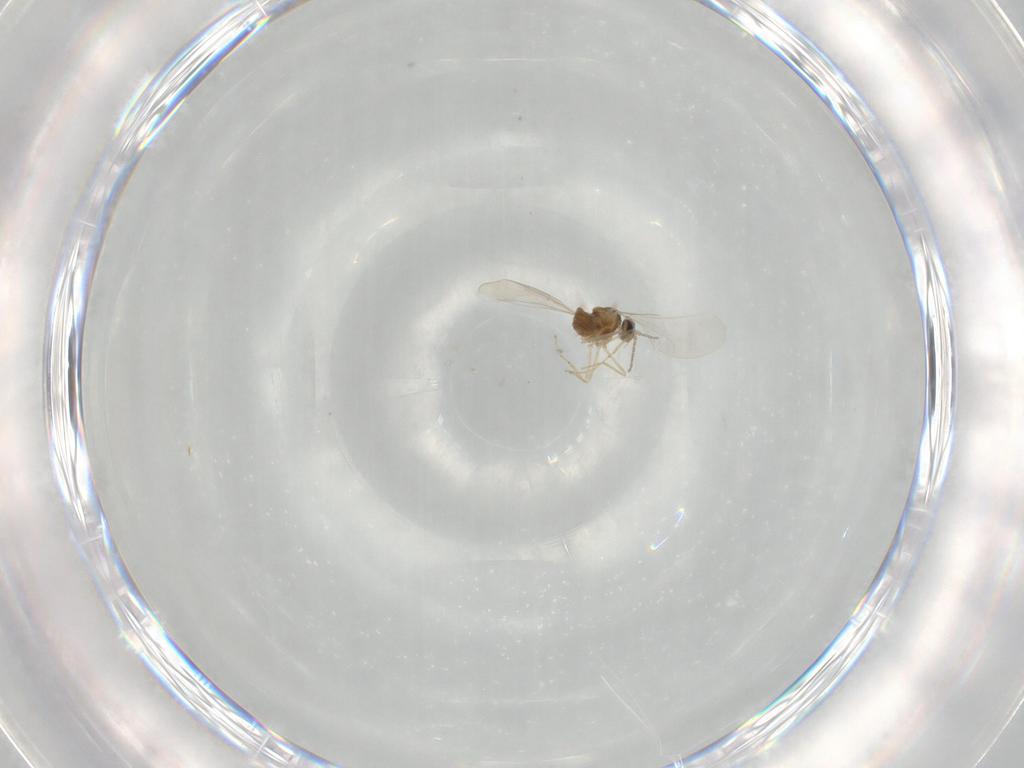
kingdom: Animalia
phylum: Arthropoda
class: Insecta
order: Diptera
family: Cecidomyiidae
